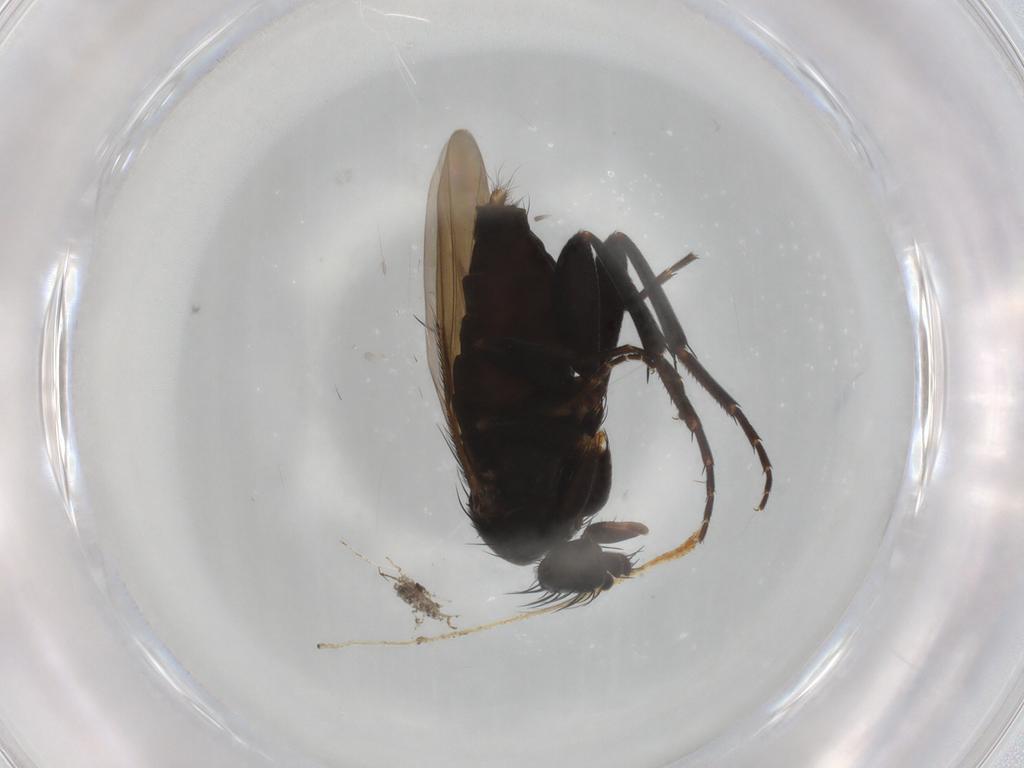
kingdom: Animalia
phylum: Arthropoda
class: Insecta
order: Diptera
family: Phoridae
